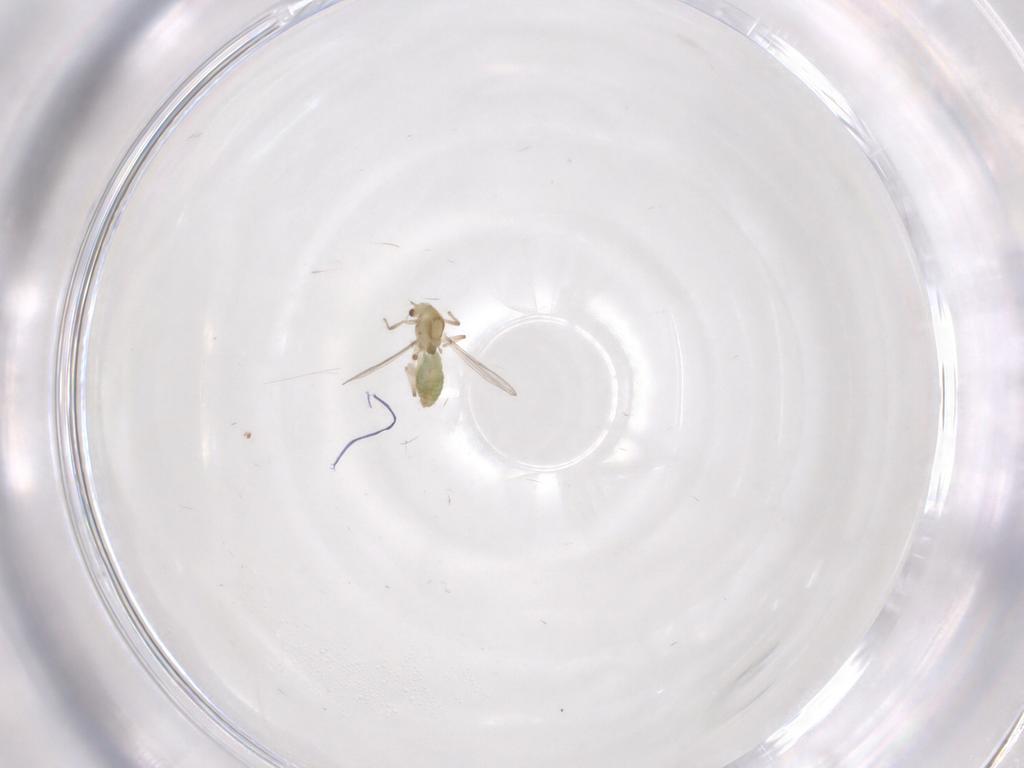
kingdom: Animalia
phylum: Arthropoda
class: Insecta
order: Diptera
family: Chironomidae
